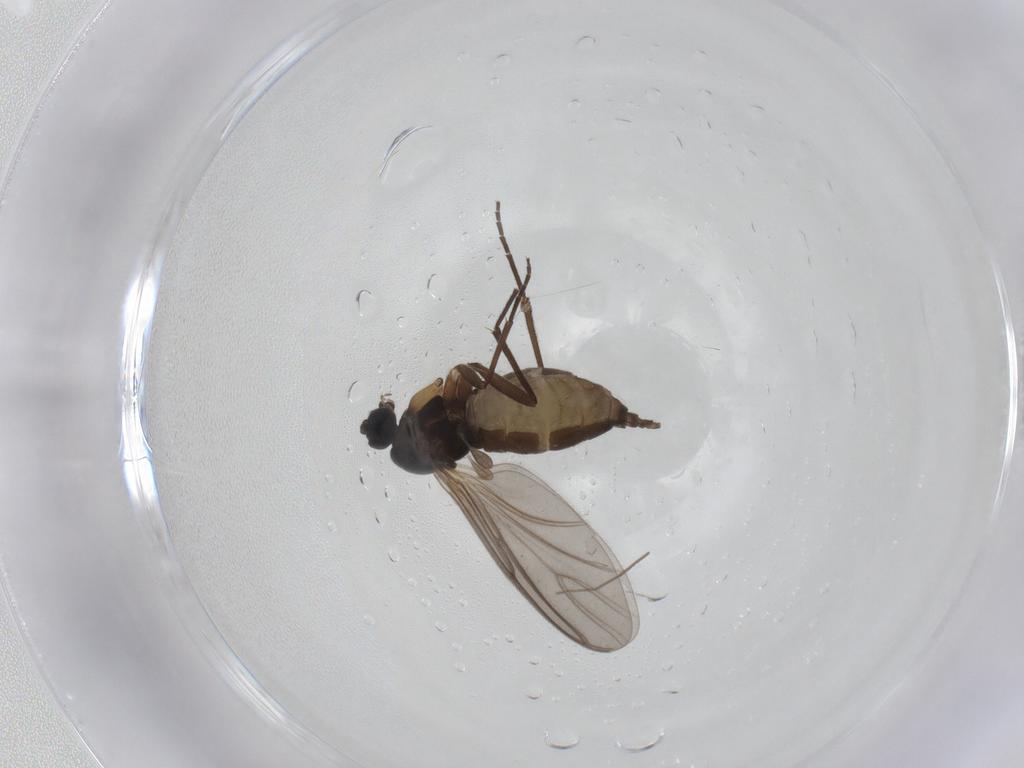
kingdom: Animalia
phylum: Arthropoda
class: Insecta
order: Diptera
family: Sciaridae
